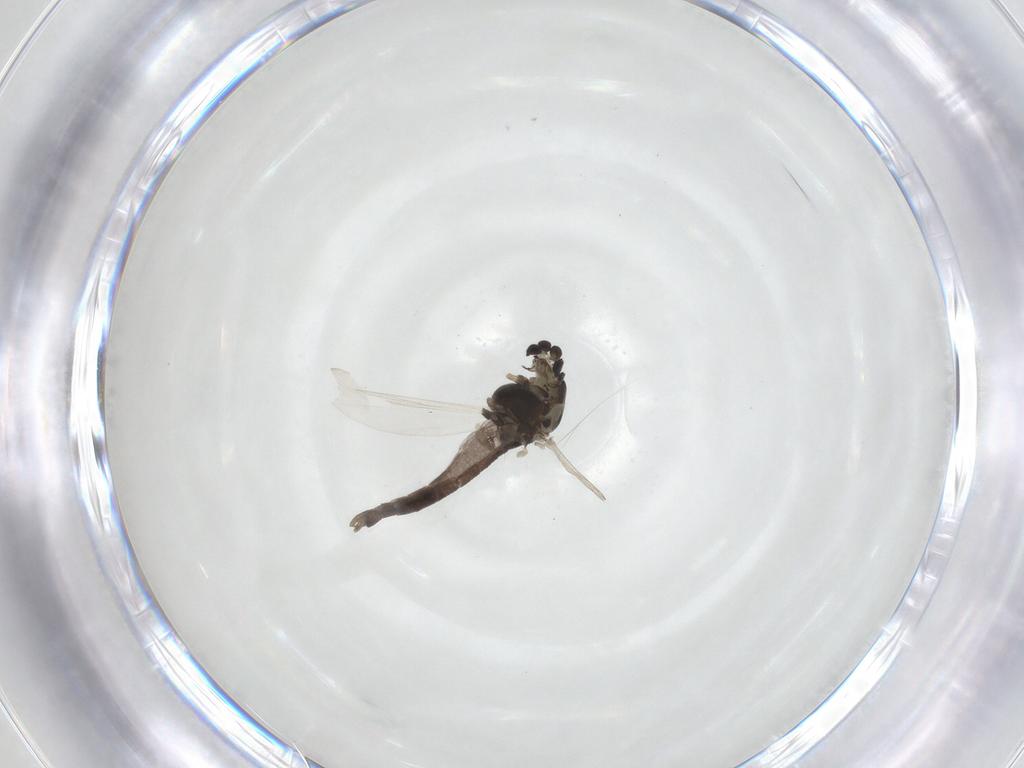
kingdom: Animalia
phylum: Arthropoda
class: Insecta
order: Diptera
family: Chironomidae
